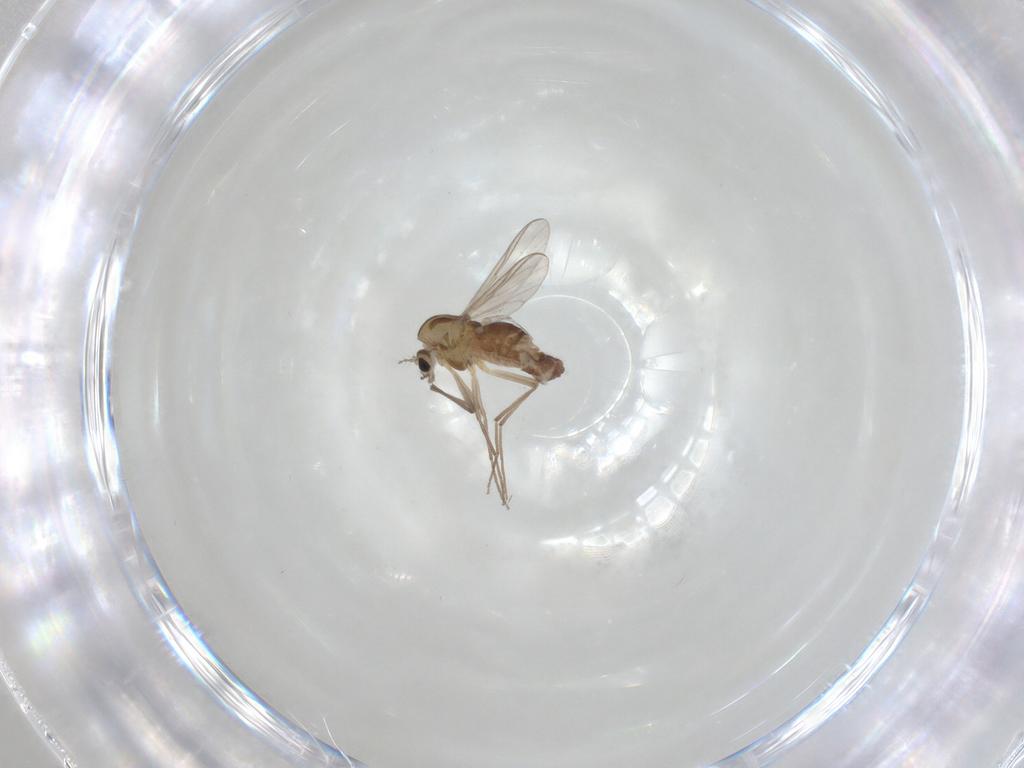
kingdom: Animalia
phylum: Arthropoda
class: Insecta
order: Diptera
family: Chironomidae
